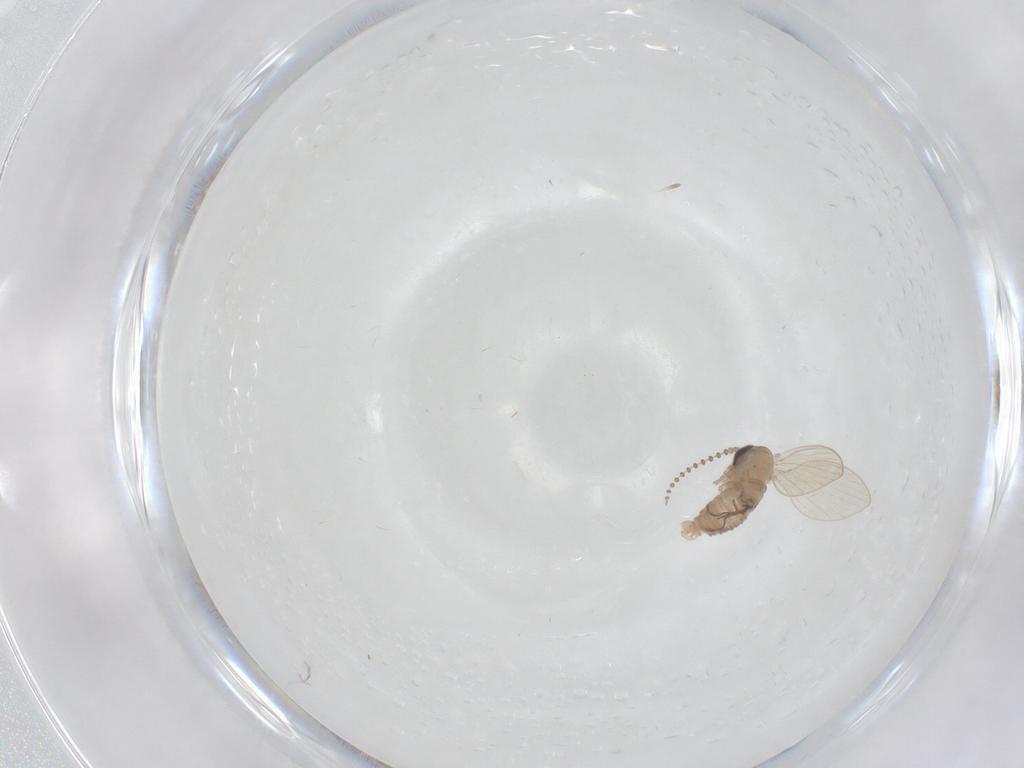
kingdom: Animalia
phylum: Arthropoda
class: Insecta
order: Diptera
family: Psychodidae
